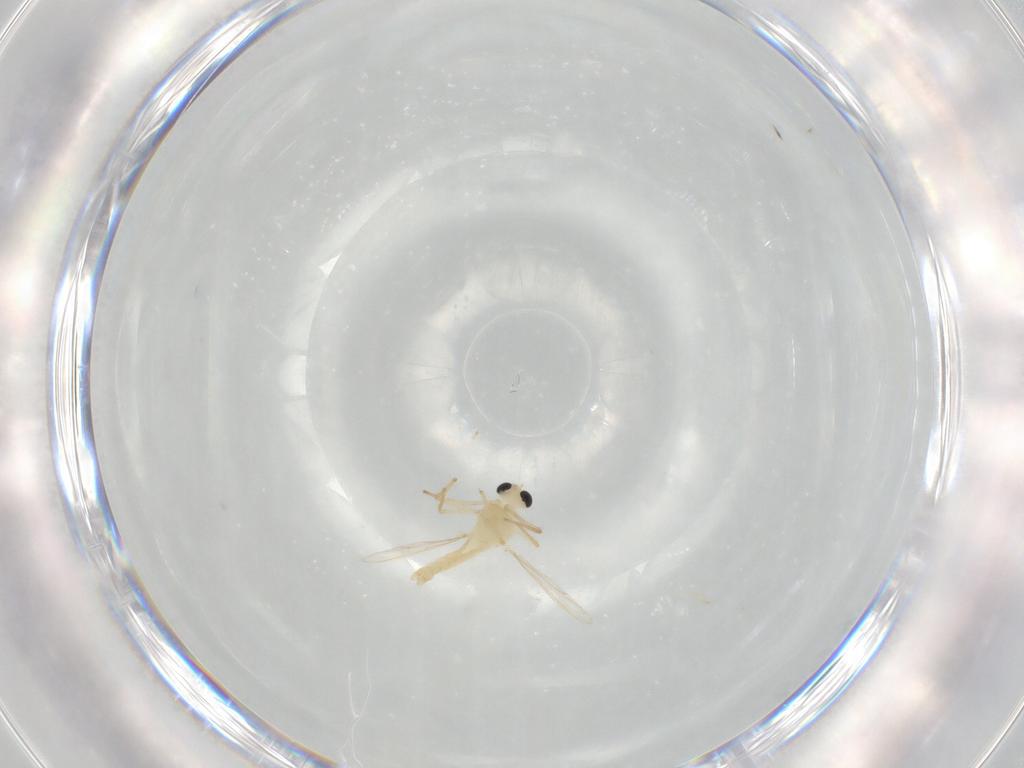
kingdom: Animalia
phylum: Arthropoda
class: Insecta
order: Diptera
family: Chironomidae
